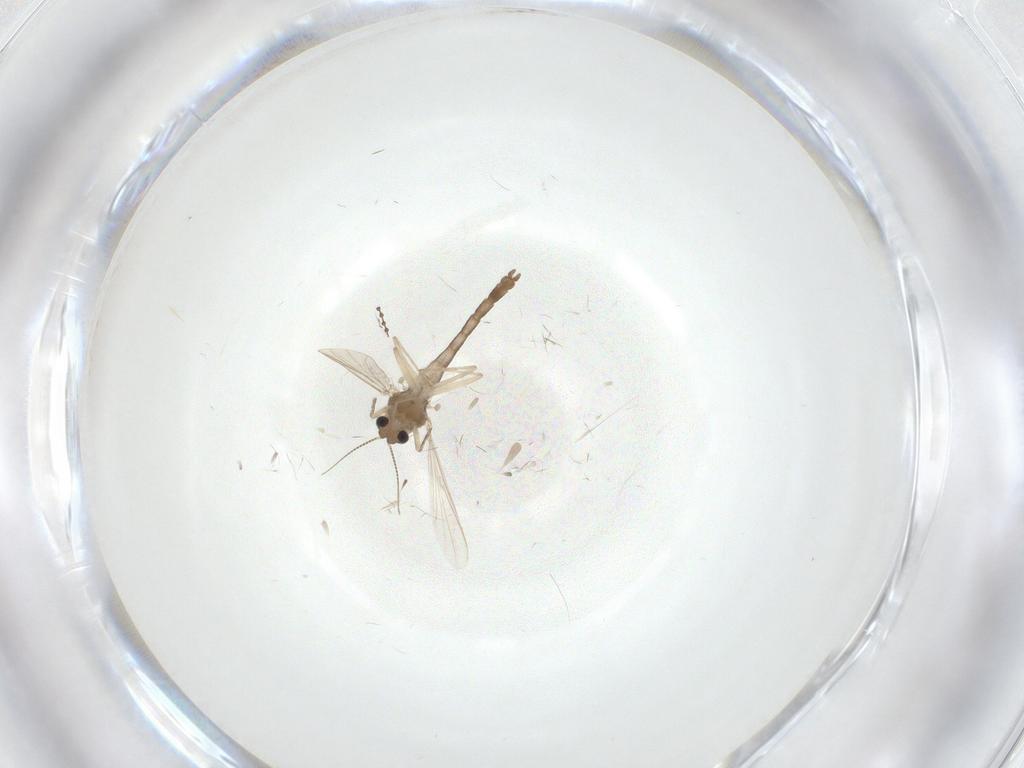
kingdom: Animalia
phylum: Arthropoda
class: Insecta
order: Diptera
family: Chironomidae
